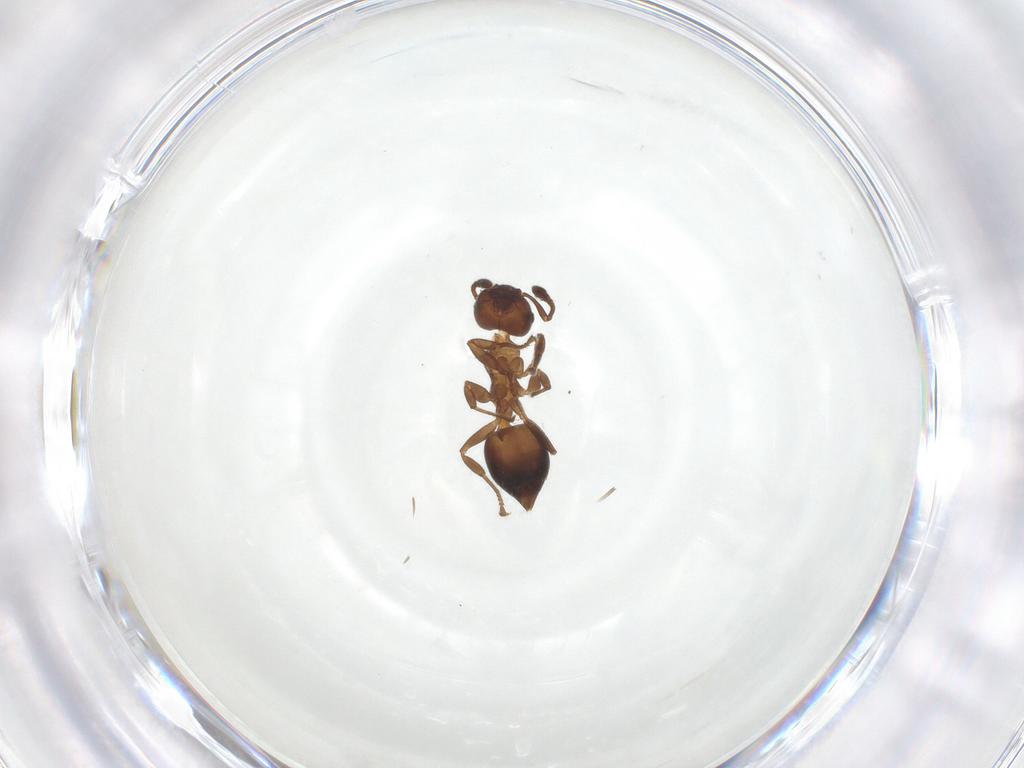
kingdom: Animalia
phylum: Arthropoda
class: Insecta
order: Hymenoptera
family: Formicidae
